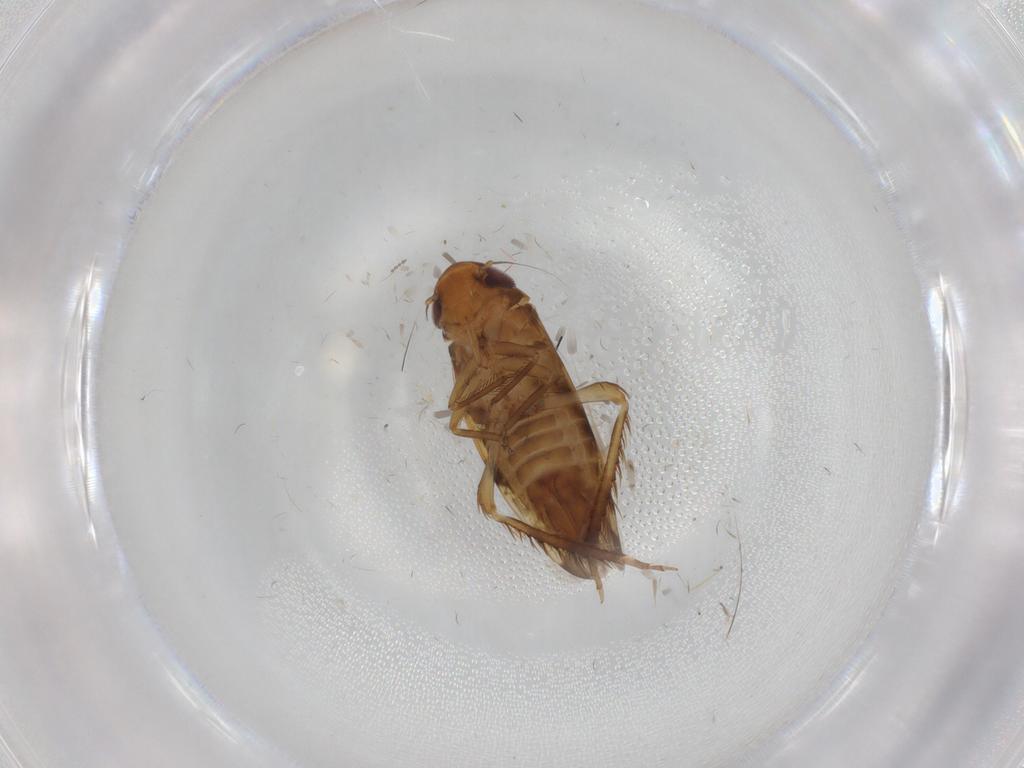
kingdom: Animalia
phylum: Arthropoda
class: Insecta
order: Hemiptera
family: Cicadellidae
